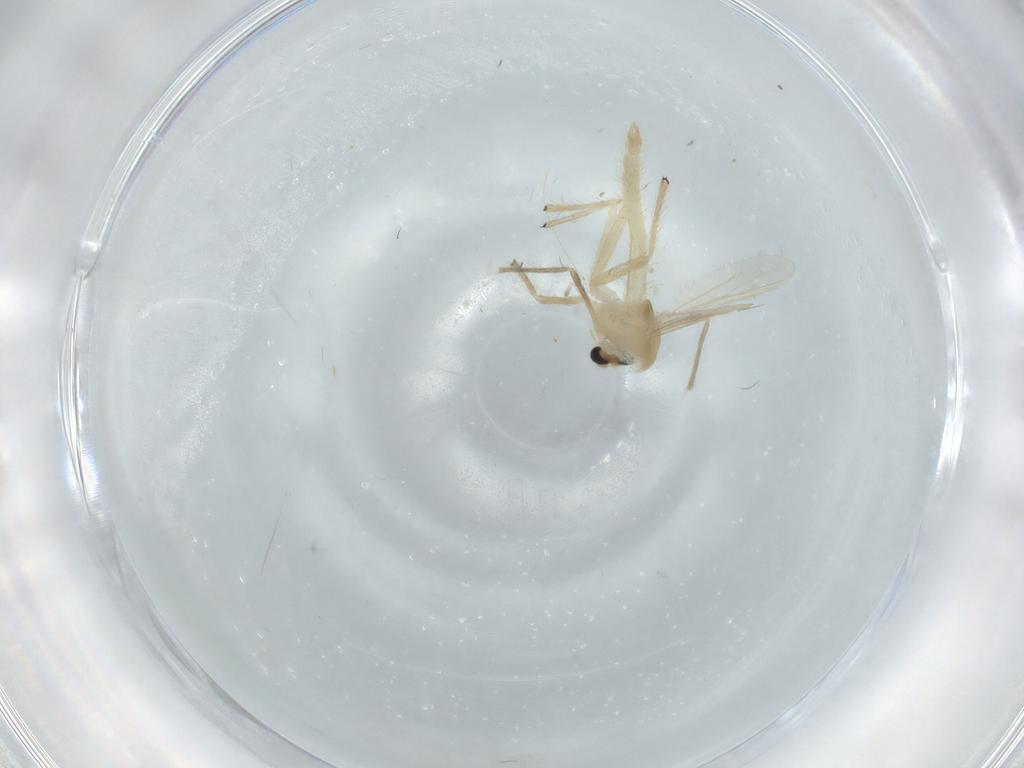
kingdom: Animalia
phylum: Arthropoda
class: Insecta
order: Diptera
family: Chironomidae
